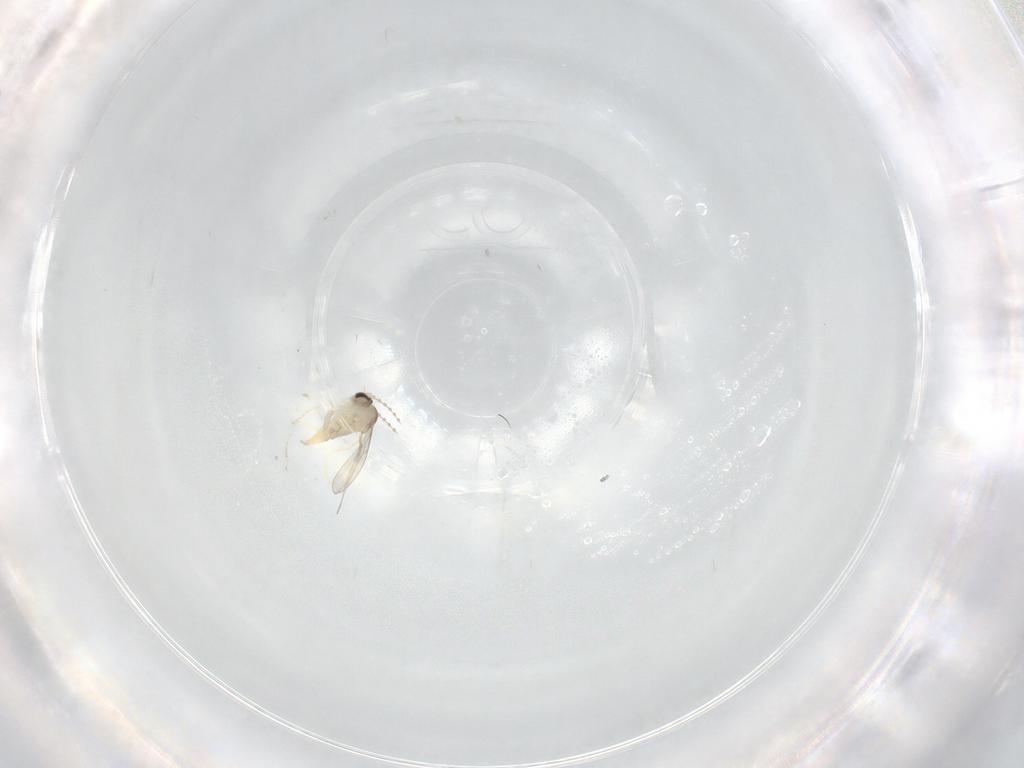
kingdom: Animalia
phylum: Arthropoda
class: Insecta
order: Diptera
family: Cecidomyiidae
